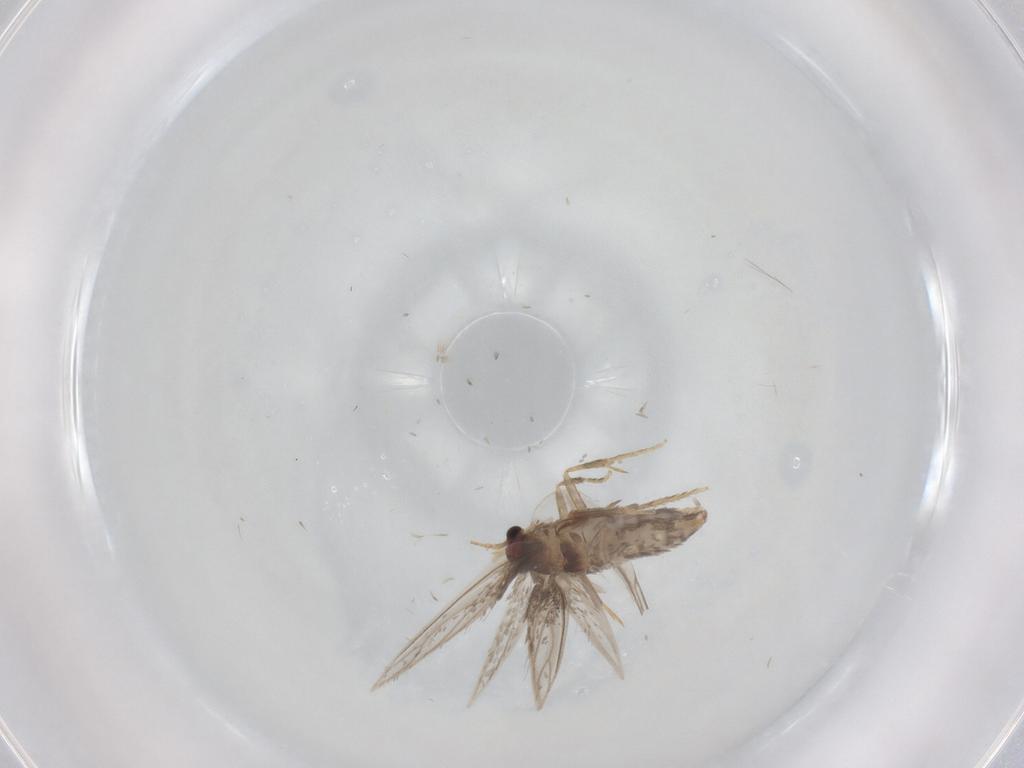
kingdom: Animalia
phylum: Arthropoda
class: Insecta
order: Lepidoptera
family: Nepticulidae
